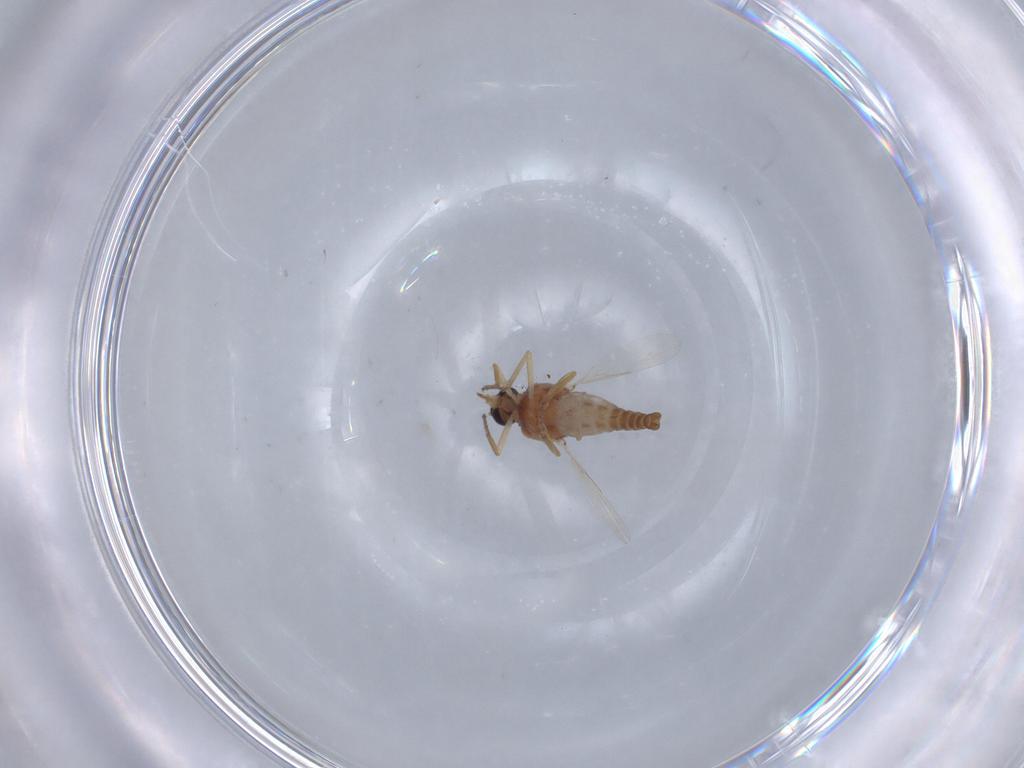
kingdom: Animalia
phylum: Arthropoda
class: Insecta
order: Diptera
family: Ceratopogonidae
